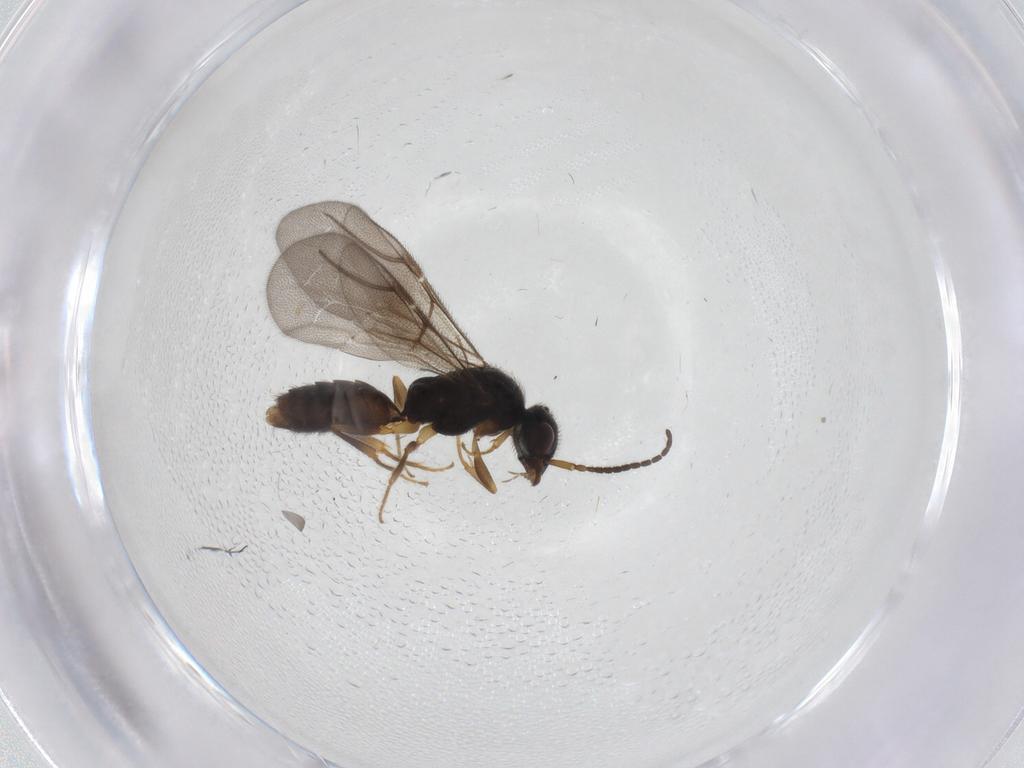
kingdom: Animalia
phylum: Arthropoda
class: Insecta
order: Hymenoptera
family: Bethylidae
